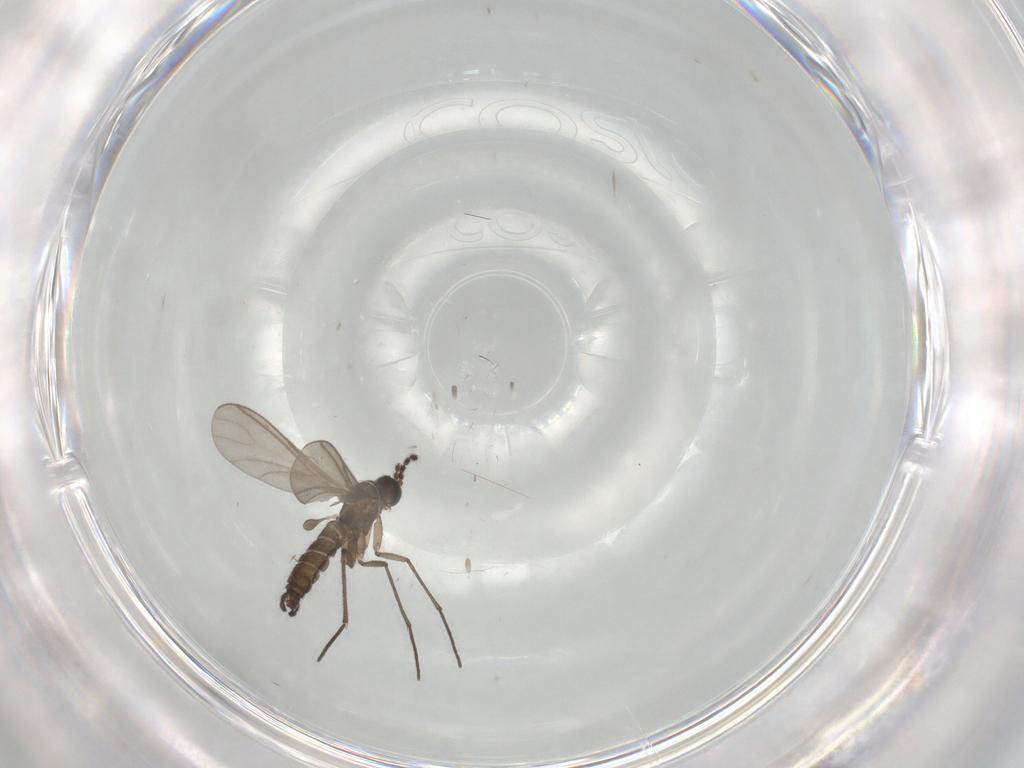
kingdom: Animalia
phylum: Arthropoda
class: Insecta
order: Diptera
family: Sciaridae
